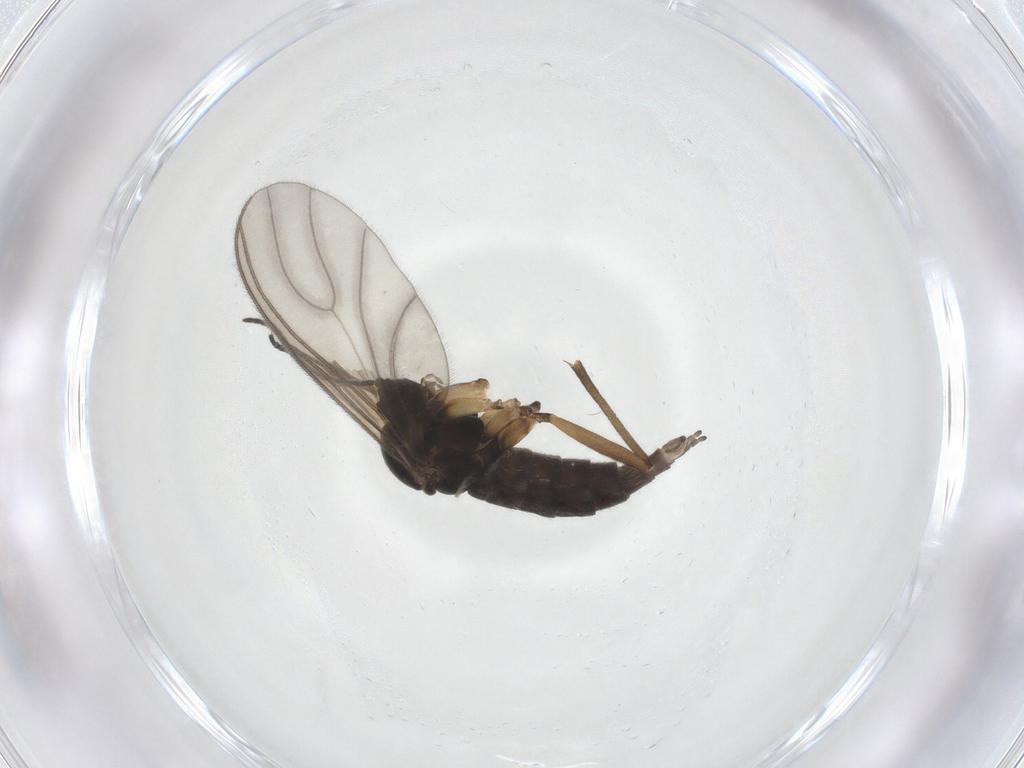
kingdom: Animalia
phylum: Arthropoda
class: Insecta
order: Diptera
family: Sciaridae
